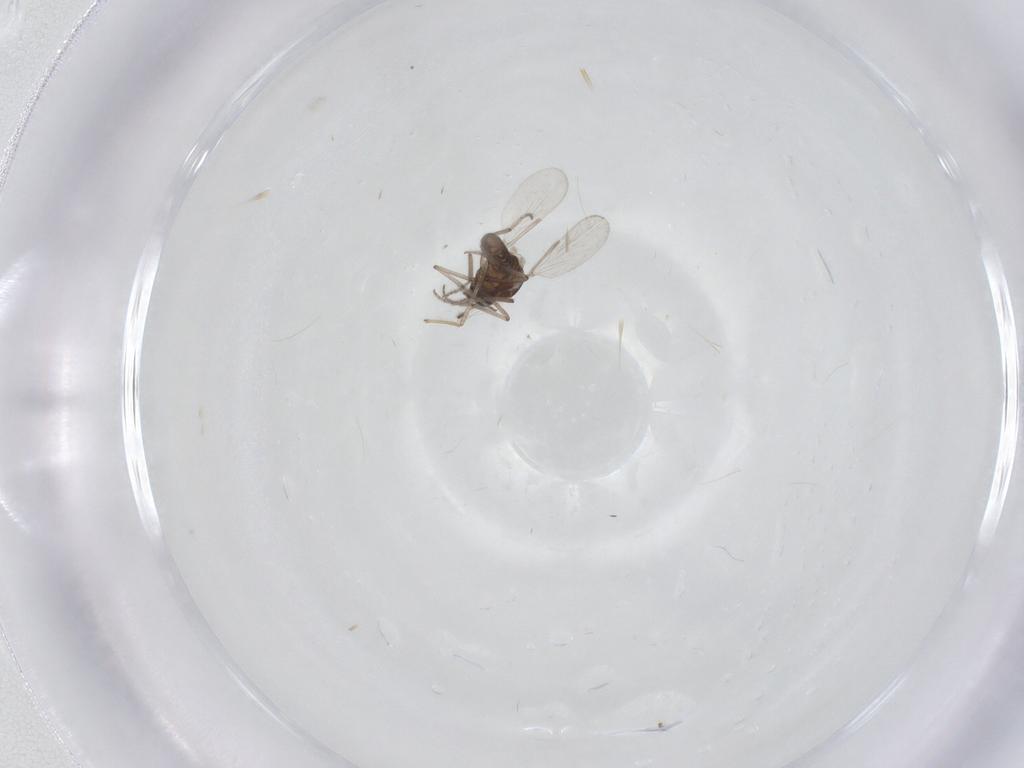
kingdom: Animalia
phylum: Arthropoda
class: Insecta
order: Diptera
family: Ceratopogonidae
